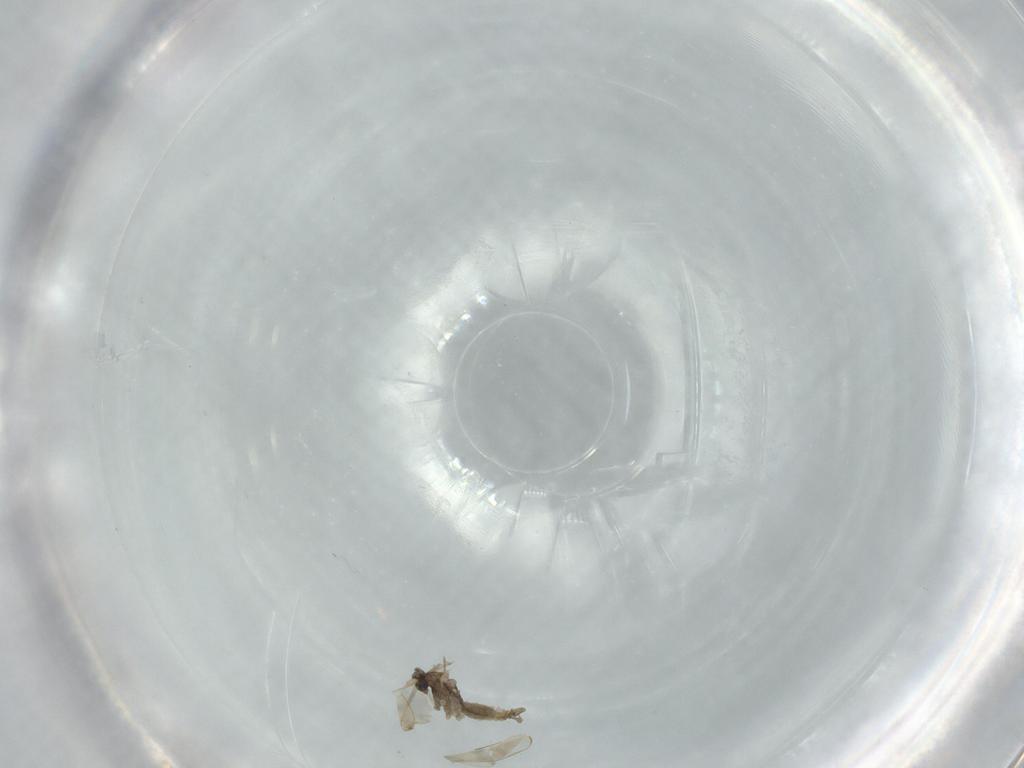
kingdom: Animalia
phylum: Arthropoda
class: Insecta
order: Diptera
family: Cecidomyiidae
